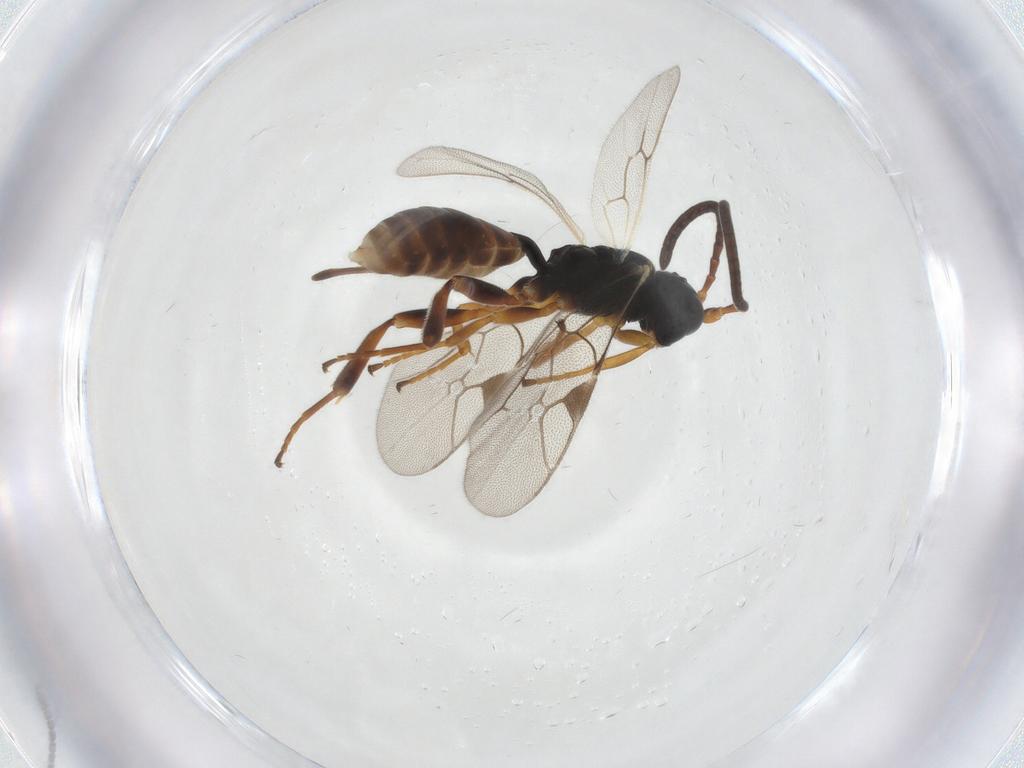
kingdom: Animalia
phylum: Arthropoda
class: Insecta
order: Hymenoptera
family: Ichneumonidae
